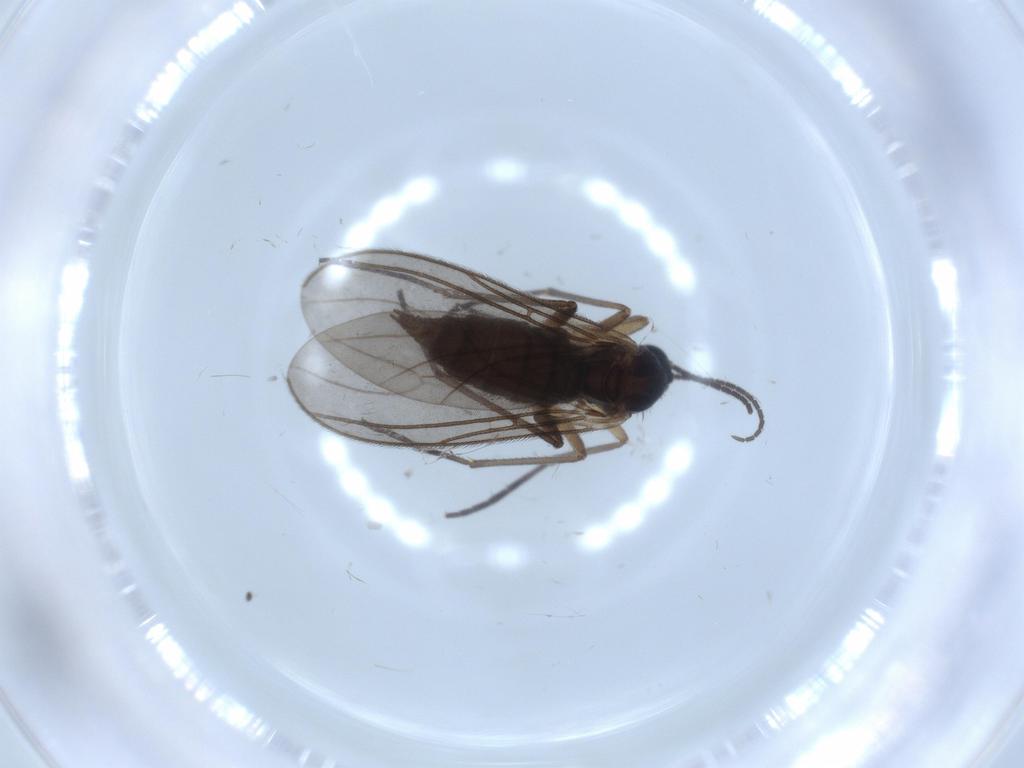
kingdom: Animalia
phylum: Arthropoda
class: Insecta
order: Diptera
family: Sciaridae
